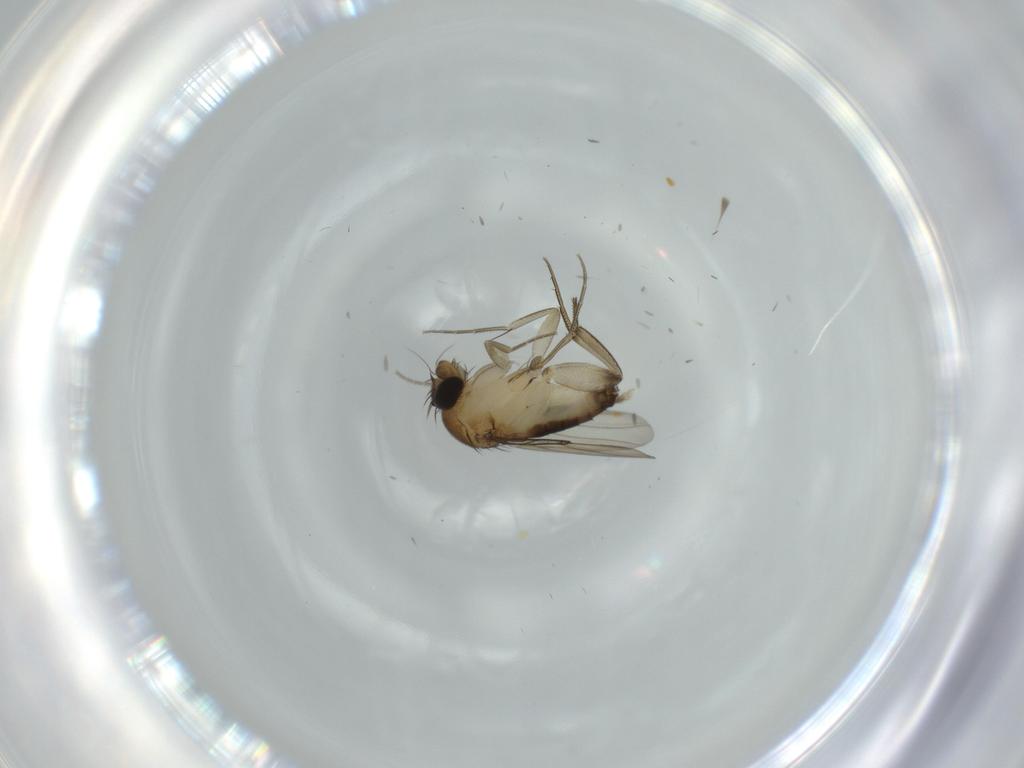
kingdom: Animalia
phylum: Arthropoda
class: Insecta
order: Diptera
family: Phoridae
